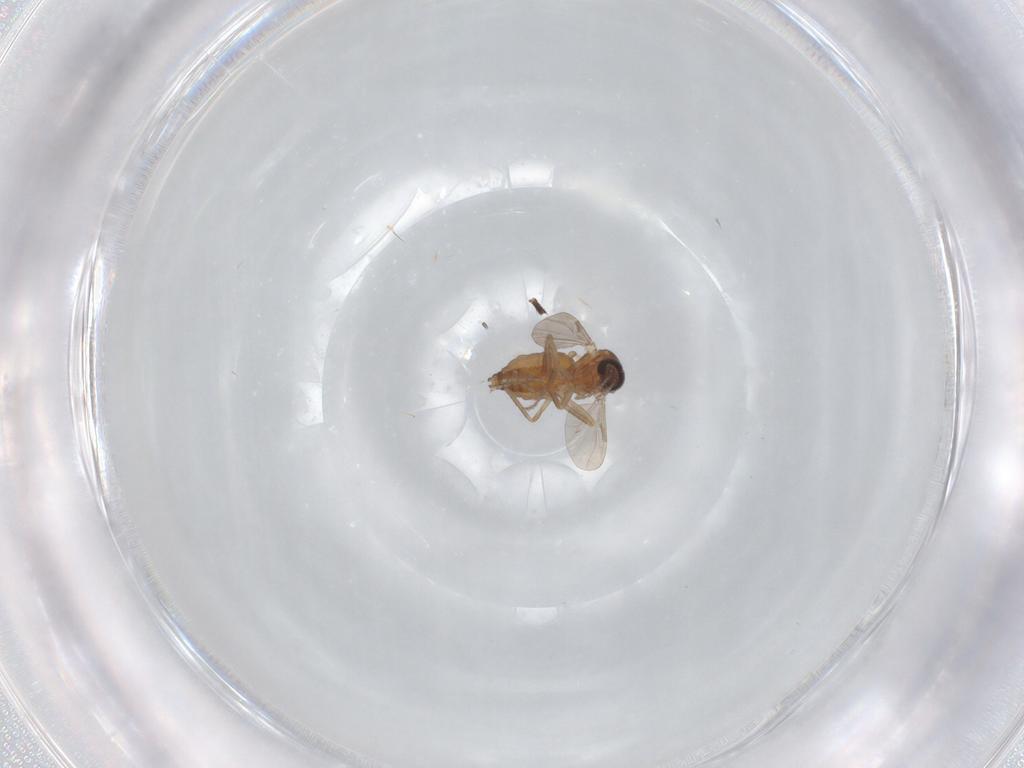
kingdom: Animalia
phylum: Arthropoda
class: Insecta
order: Diptera
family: Ceratopogonidae
